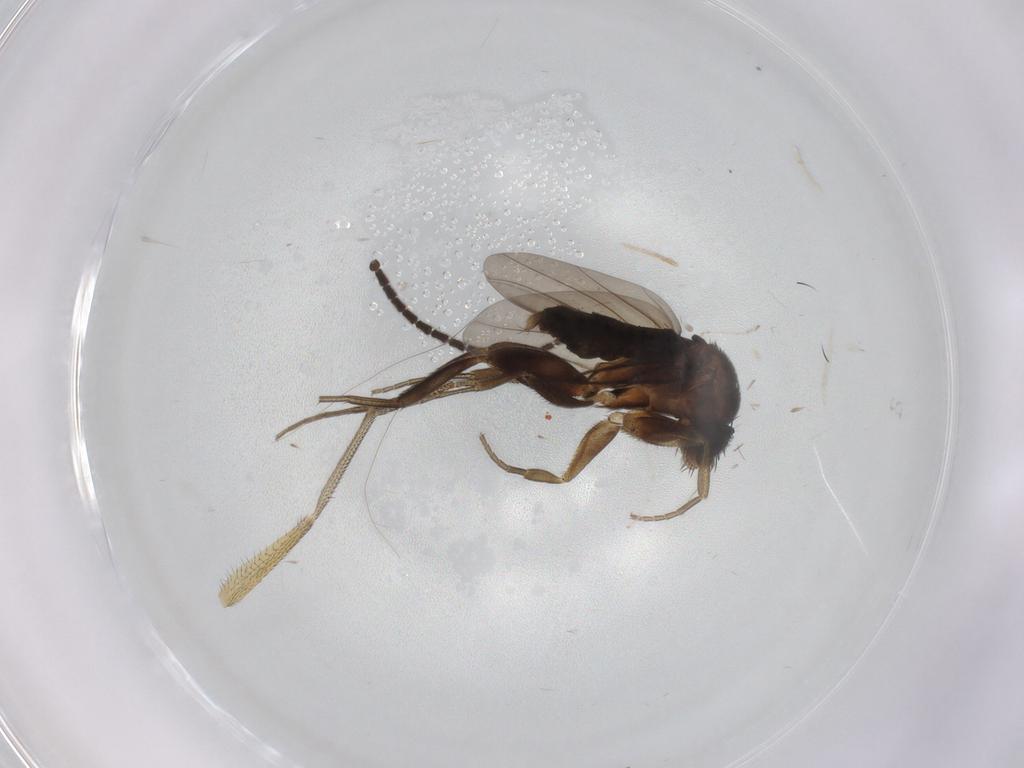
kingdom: Animalia
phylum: Arthropoda
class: Insecta
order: Diptera
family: Phoridae
